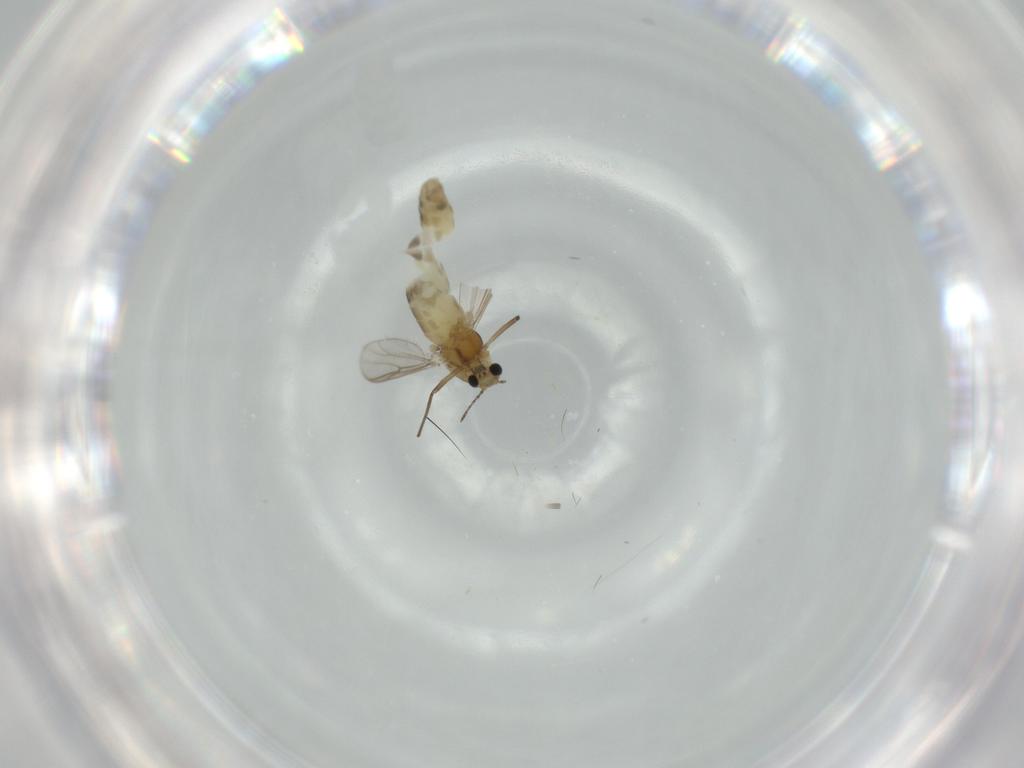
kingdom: Animalia
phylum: Arthropoda
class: Insecta
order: Diptera
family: Chironomidae
